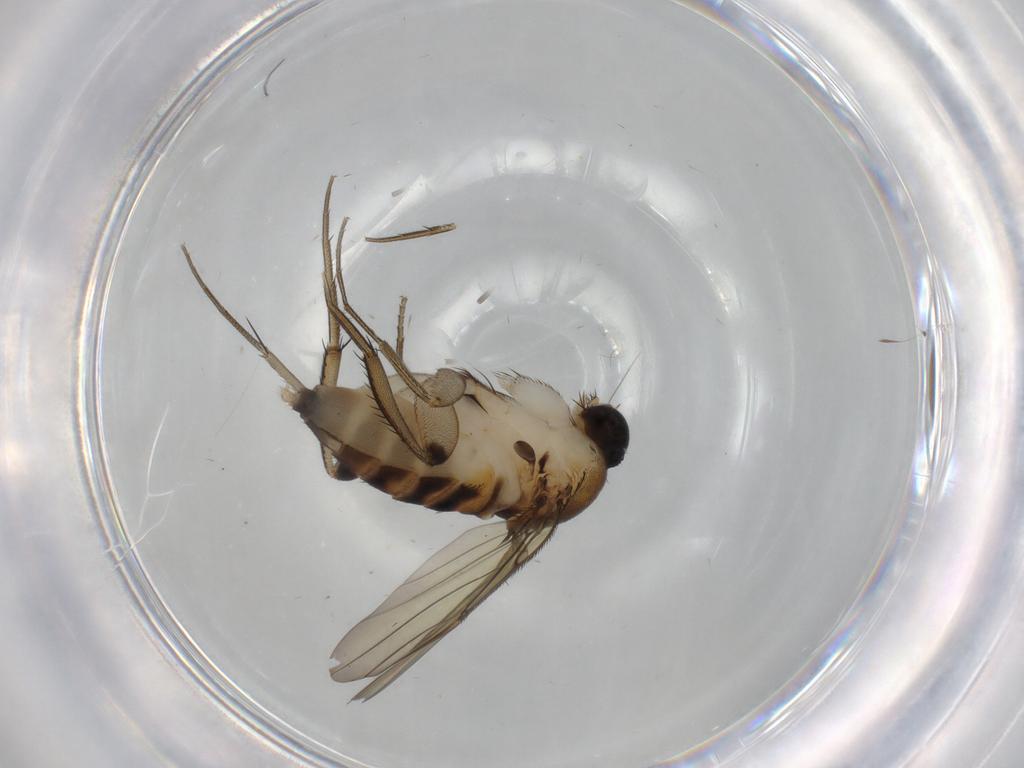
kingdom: Animalia
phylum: Arthropoda
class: Insecta
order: Diptera
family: Phoridae
